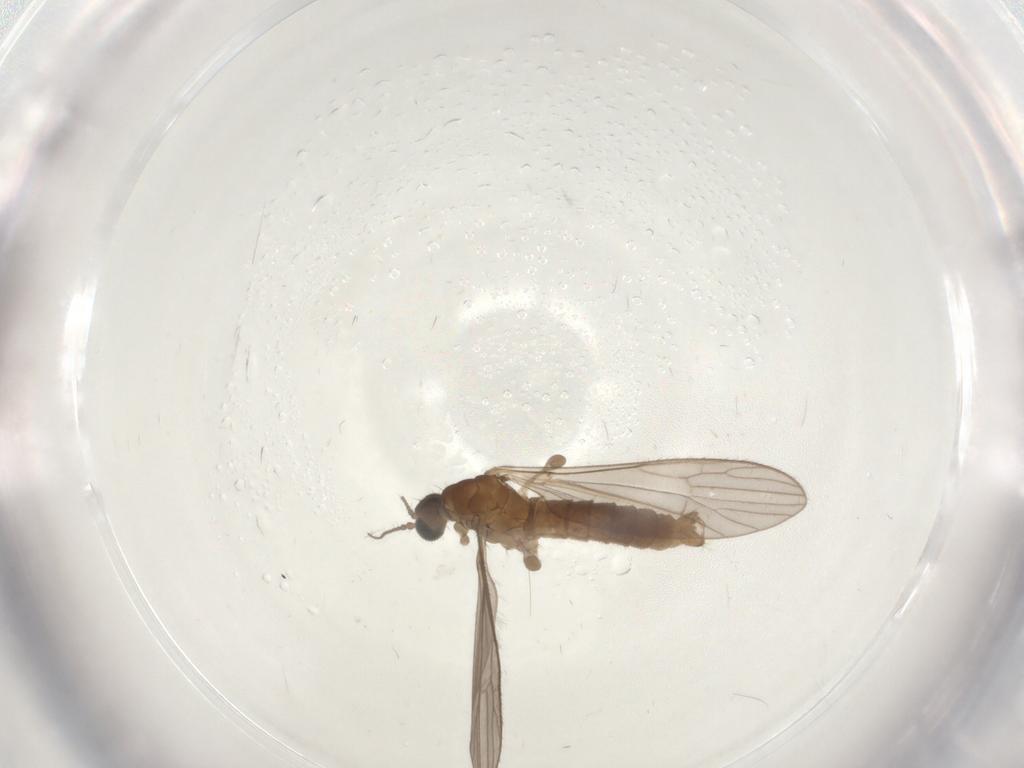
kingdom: Animalia
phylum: Arthropoda
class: Insecta
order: Diptera
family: Limoniidae
